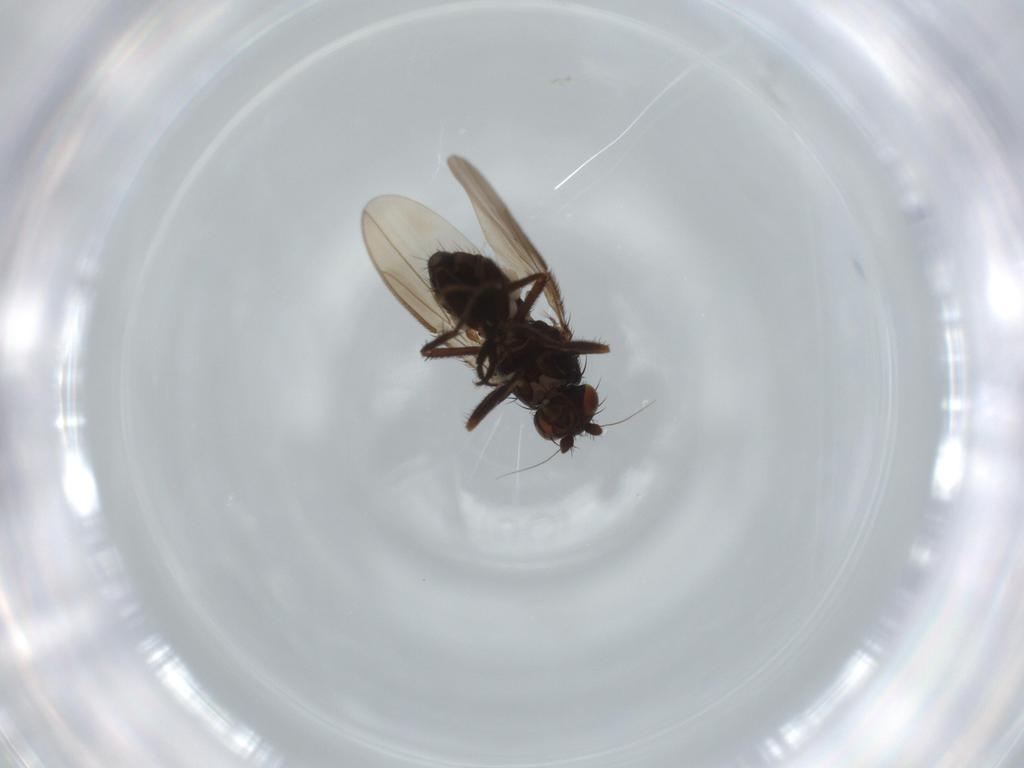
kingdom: Animalia
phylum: Arthropoda
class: Insecta
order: Diptera
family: Sphaeroceridae
